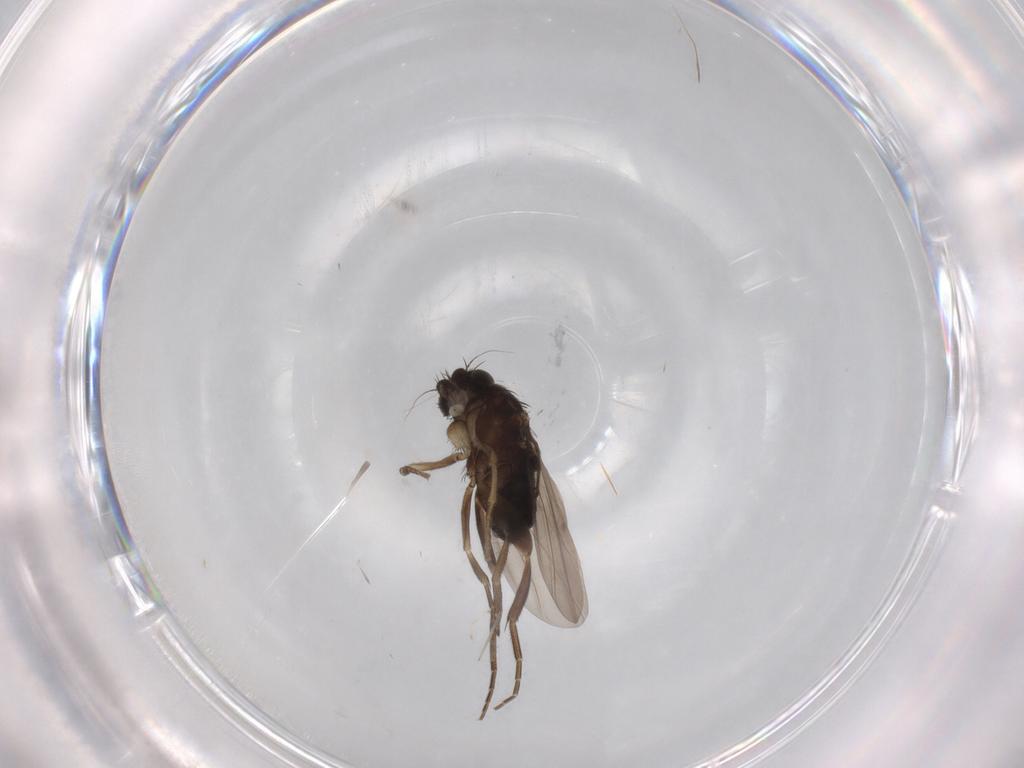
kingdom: Animalia
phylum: Arthropoda
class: Insecta
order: Diptera
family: Phoridae
